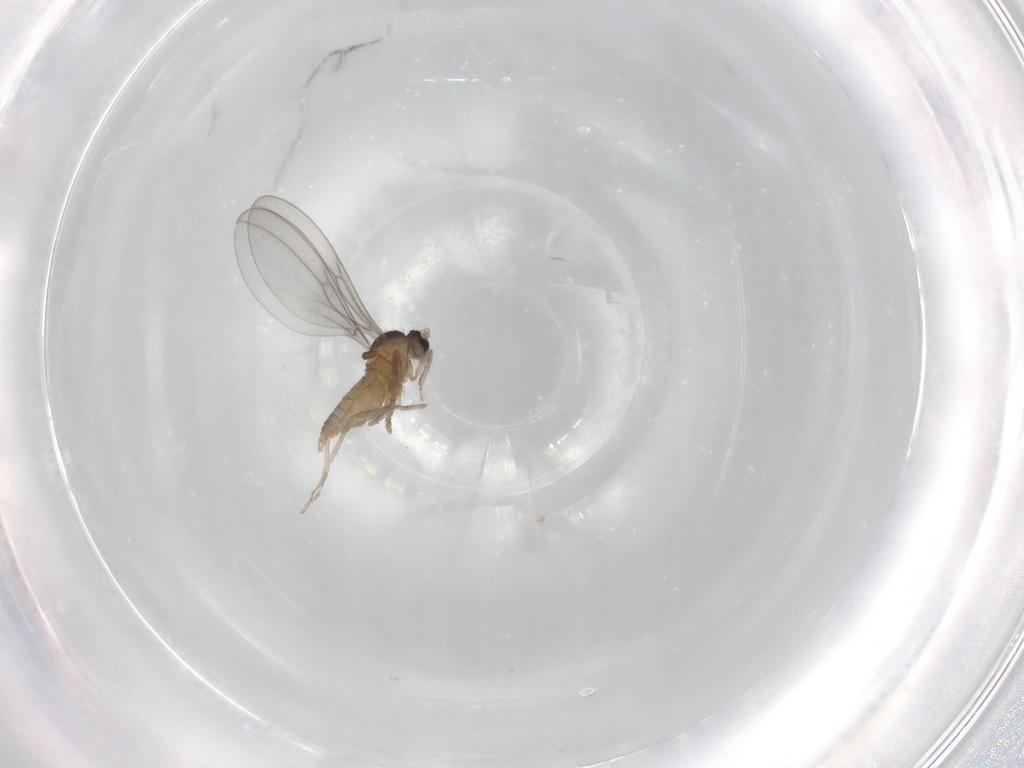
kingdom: Animalia
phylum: Arthropoda
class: Insecta
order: Diptera
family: Cecidomyiidae
